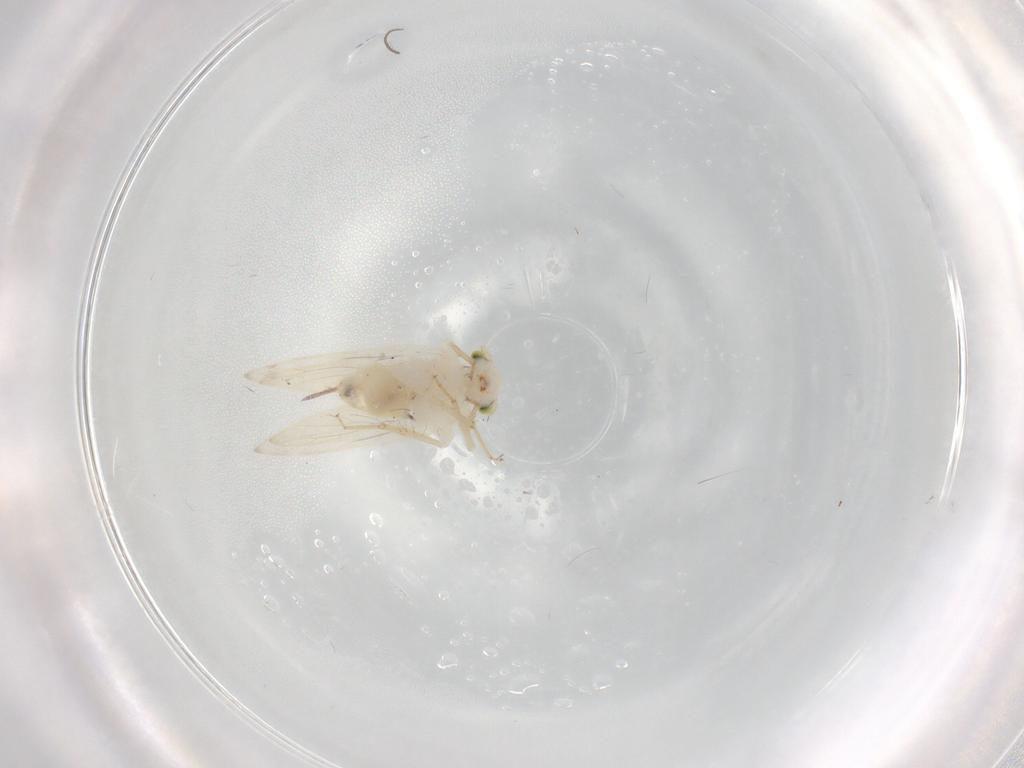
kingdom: Animalia
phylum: Arthropoda
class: Insecta
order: Psocodea
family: Lepidopsocidae
